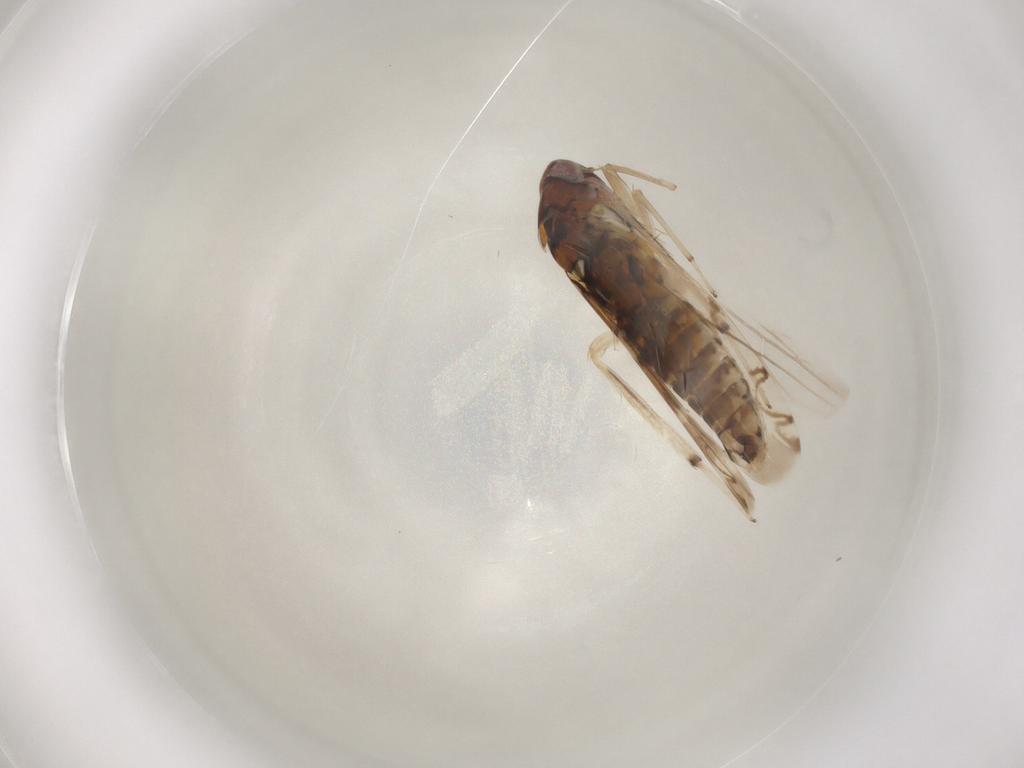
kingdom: Animalia
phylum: Arthropoda
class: Insecta
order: Hemiptera
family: Cicadellidae
